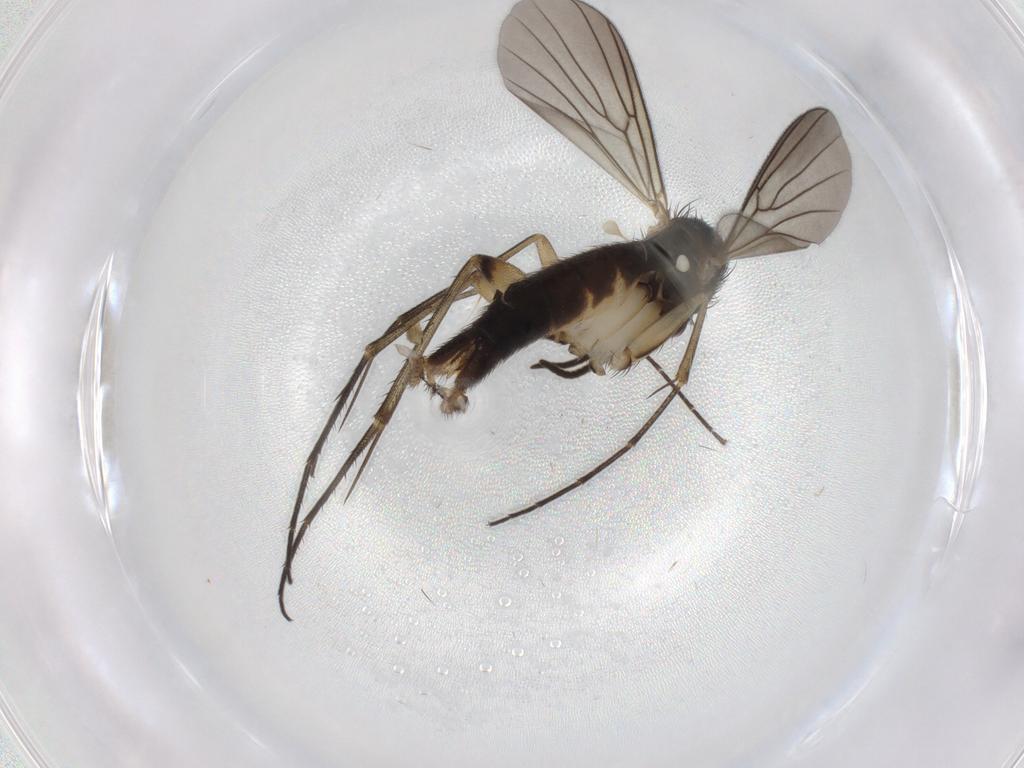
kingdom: Animalia
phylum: Arthropoda
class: Insecta
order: Diptera
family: Mycetophilidae
